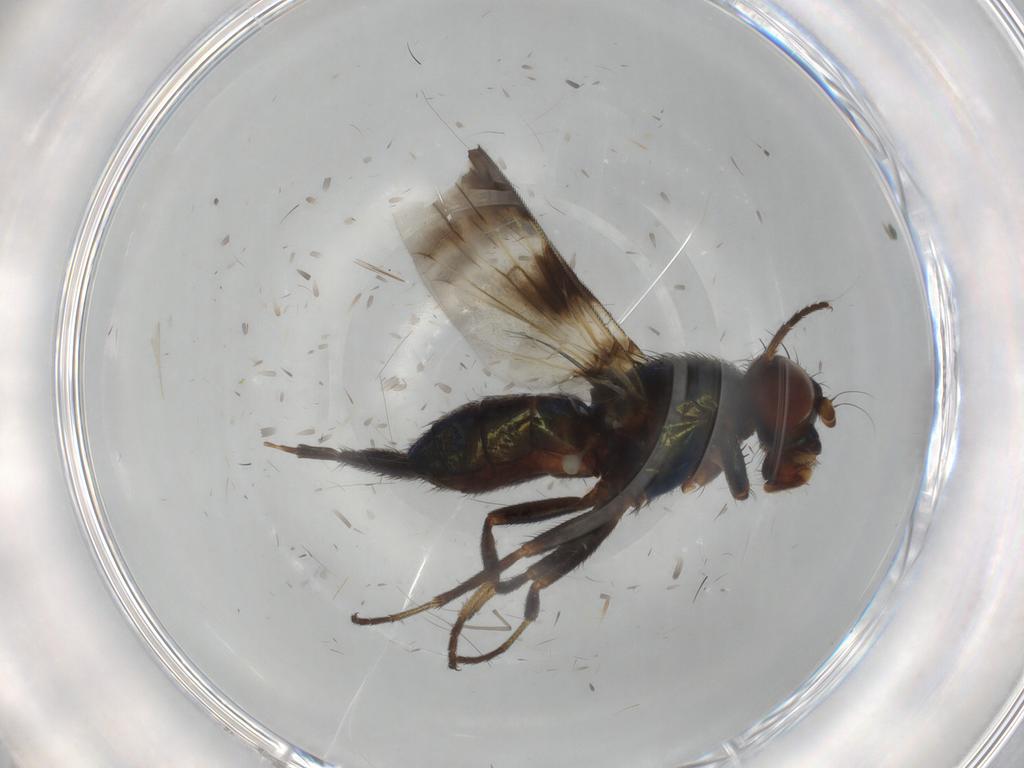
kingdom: Animalia
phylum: Arthropoda
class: Insecta
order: Diptera
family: Ulidiidae
